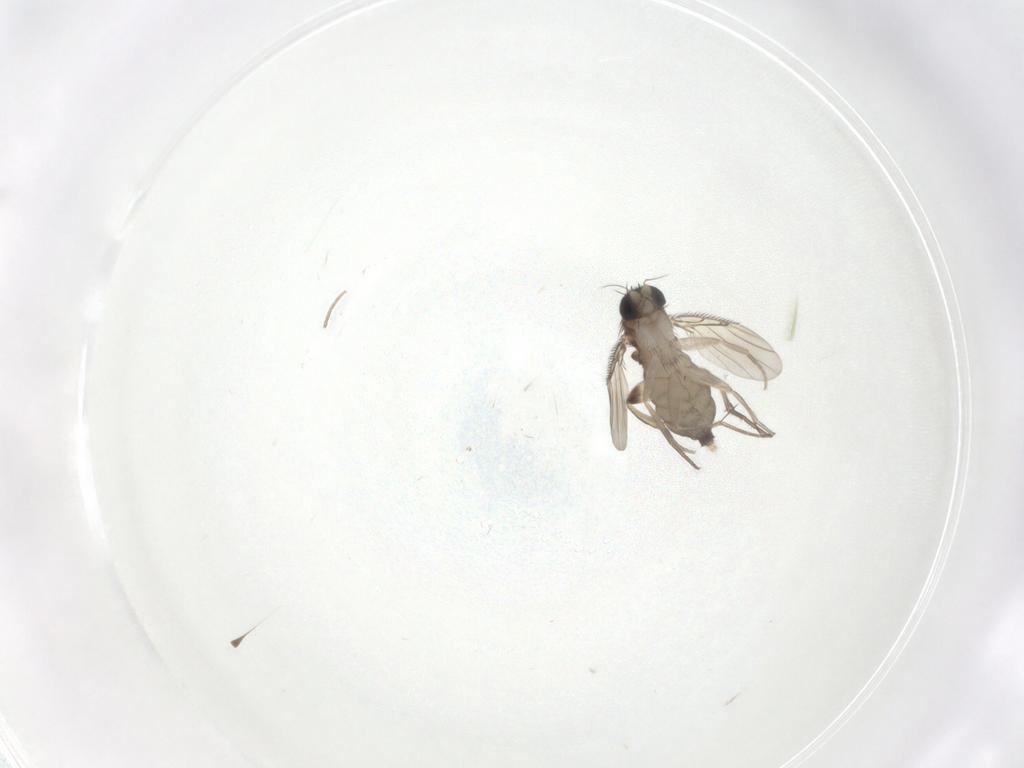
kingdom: Animalia
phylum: Arthropoda
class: Insecta
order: Diptera
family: Phoridae
